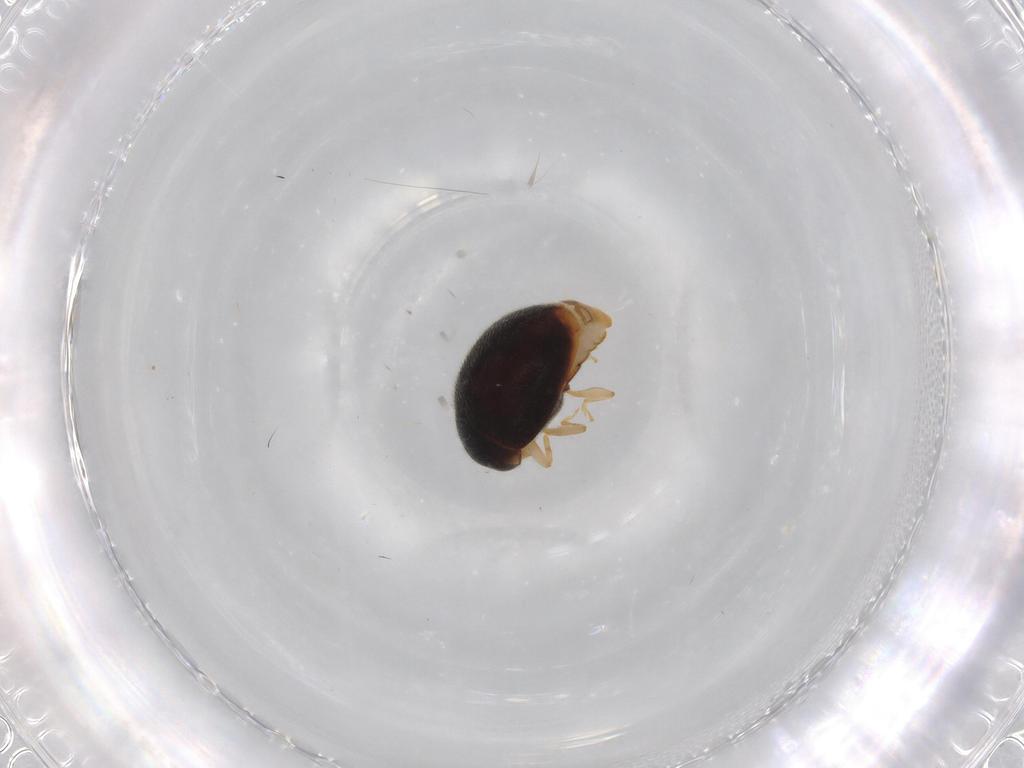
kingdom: Animalia
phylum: Arthropoda
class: Insecta
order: Coleoptera
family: Coccinellidae
